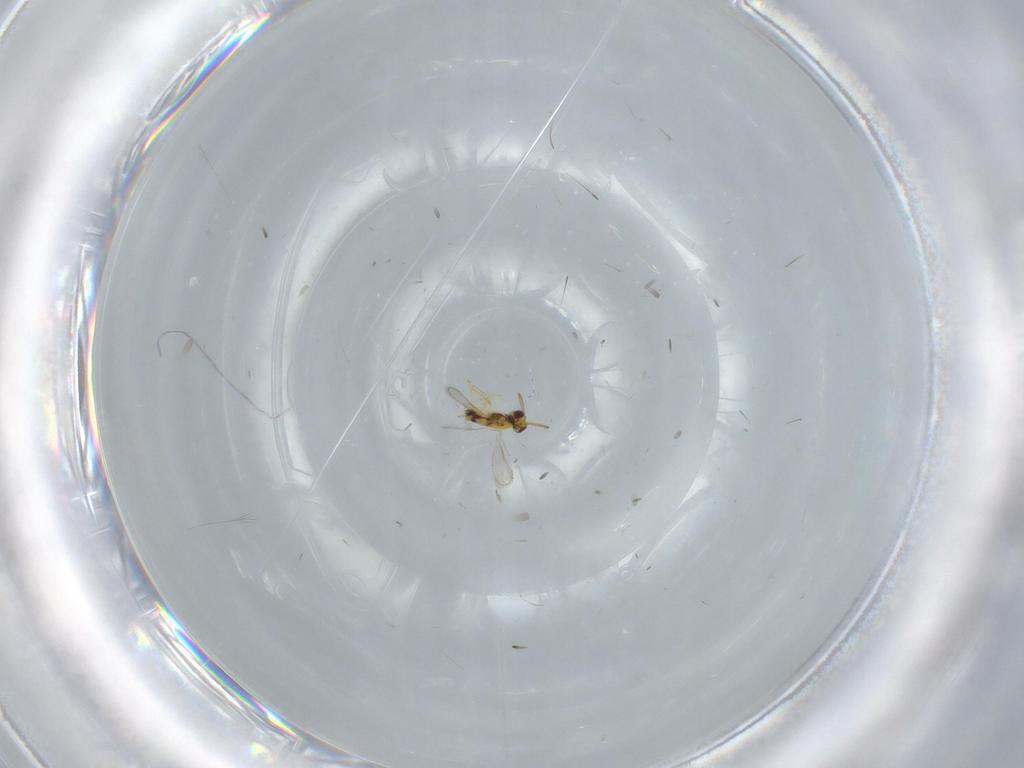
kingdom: Animalia
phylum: Arthropoda
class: Insecta
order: Hymenoptera
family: Aphelinidae
